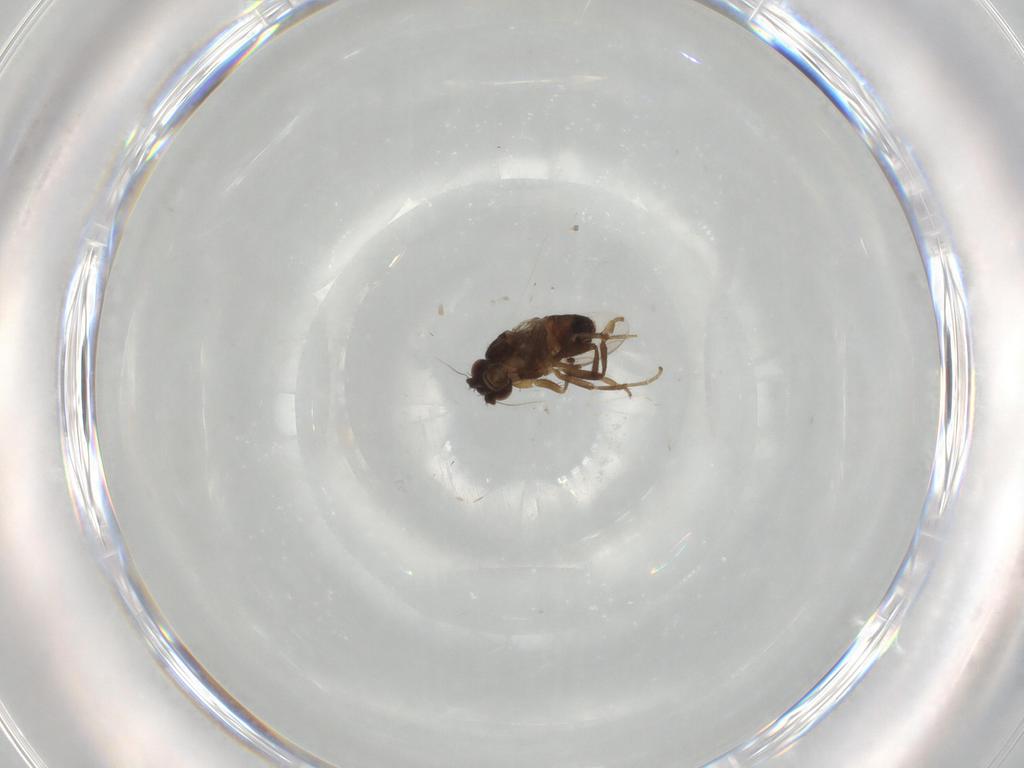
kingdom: Animalia
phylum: Arthropoda
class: Insecta
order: Diptera
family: Sphaeroceridae
